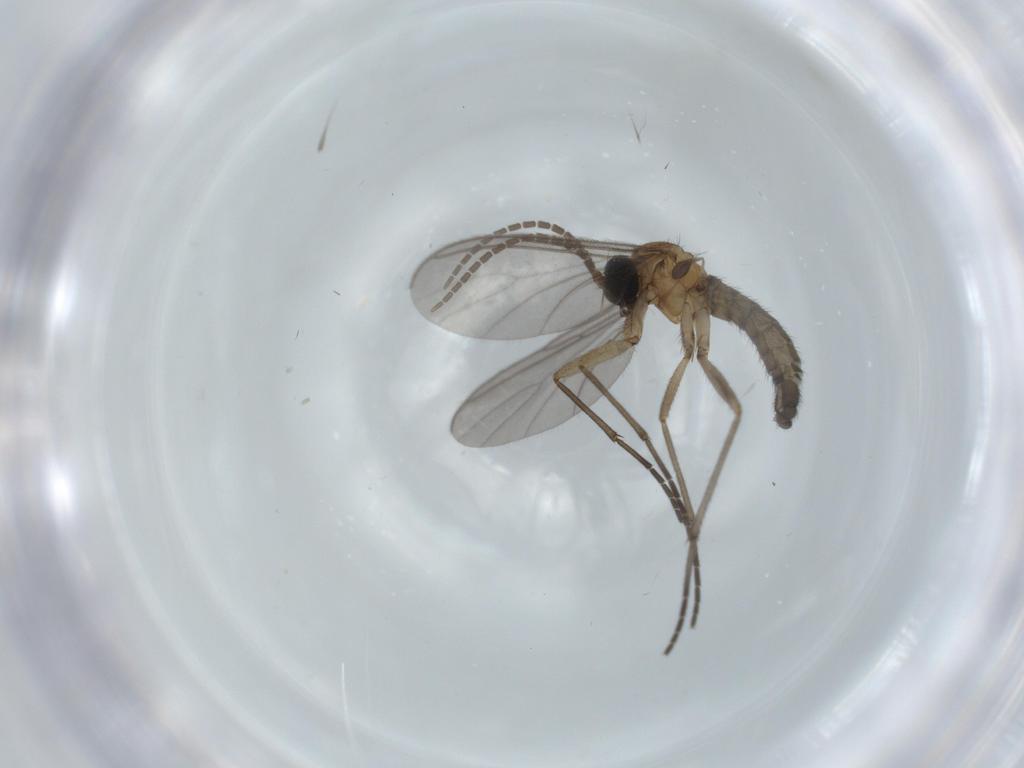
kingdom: Animalia
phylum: Arthropoda
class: Insecta
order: Diptera
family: Sciaridae
